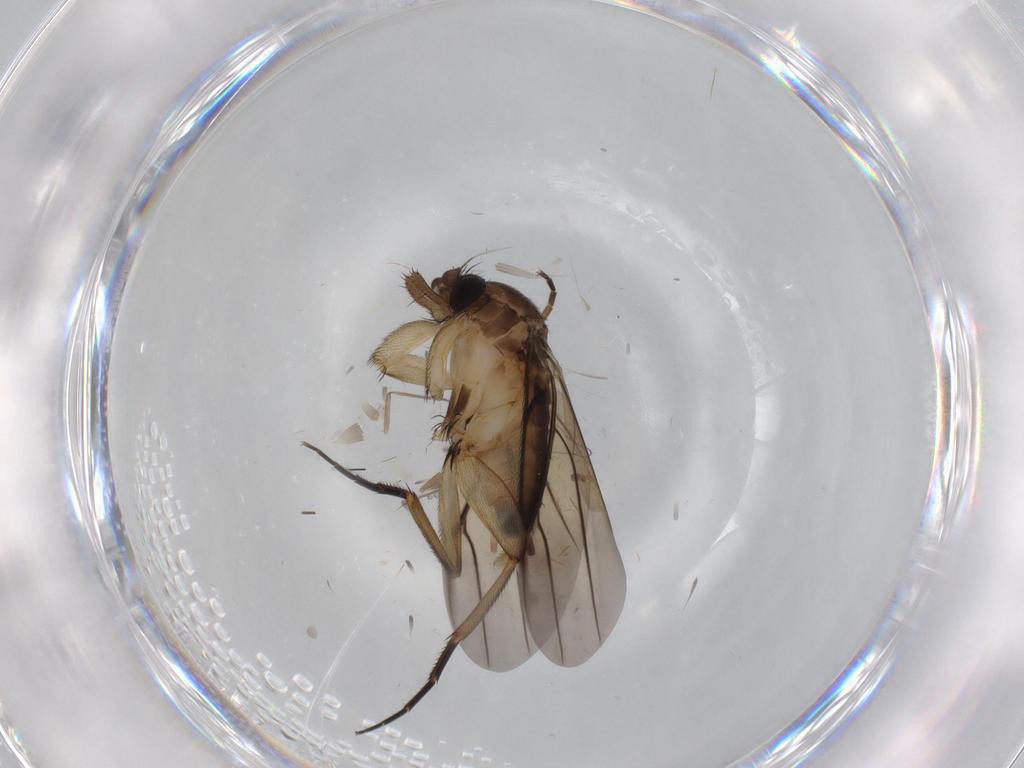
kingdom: Animalia
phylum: Arthropoda
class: Insecta
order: Diptera
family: Phoridae
